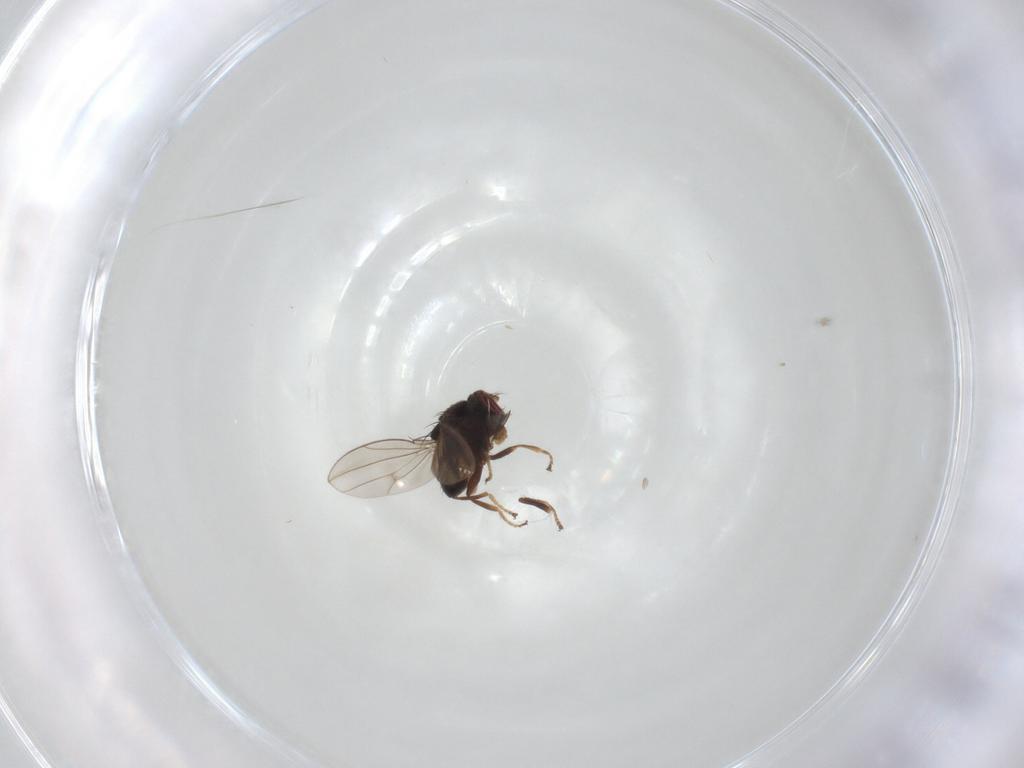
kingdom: Animalia
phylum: Arthropoda
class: Insecta
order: Diptera
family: Ephydridae
